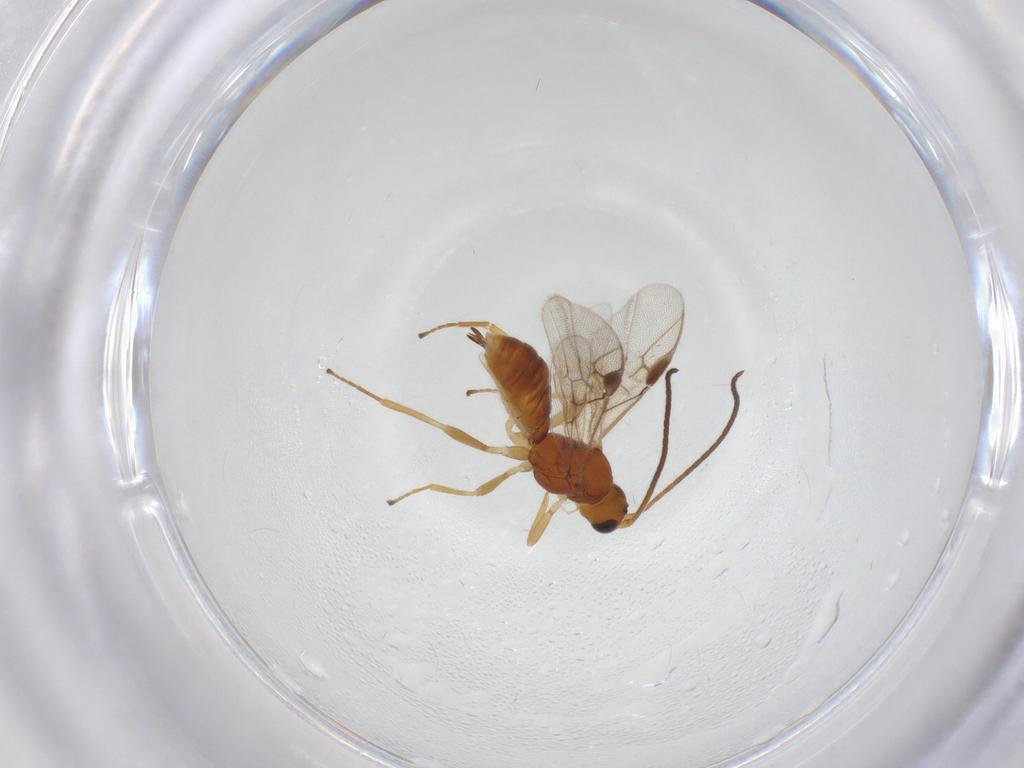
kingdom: Animalia
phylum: Arthropoda
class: Insecta
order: Hymenoptera
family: Braconidae
